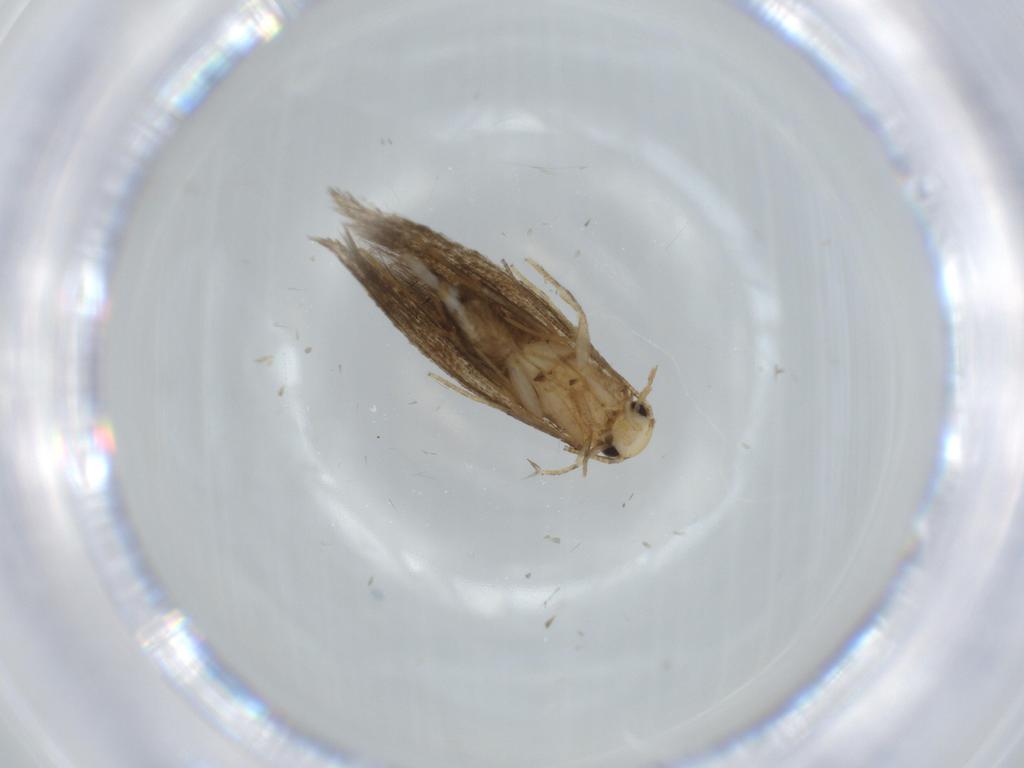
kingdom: Animalia
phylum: Arthropoda
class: Insecta
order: Lepidoptera
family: Tineidae
